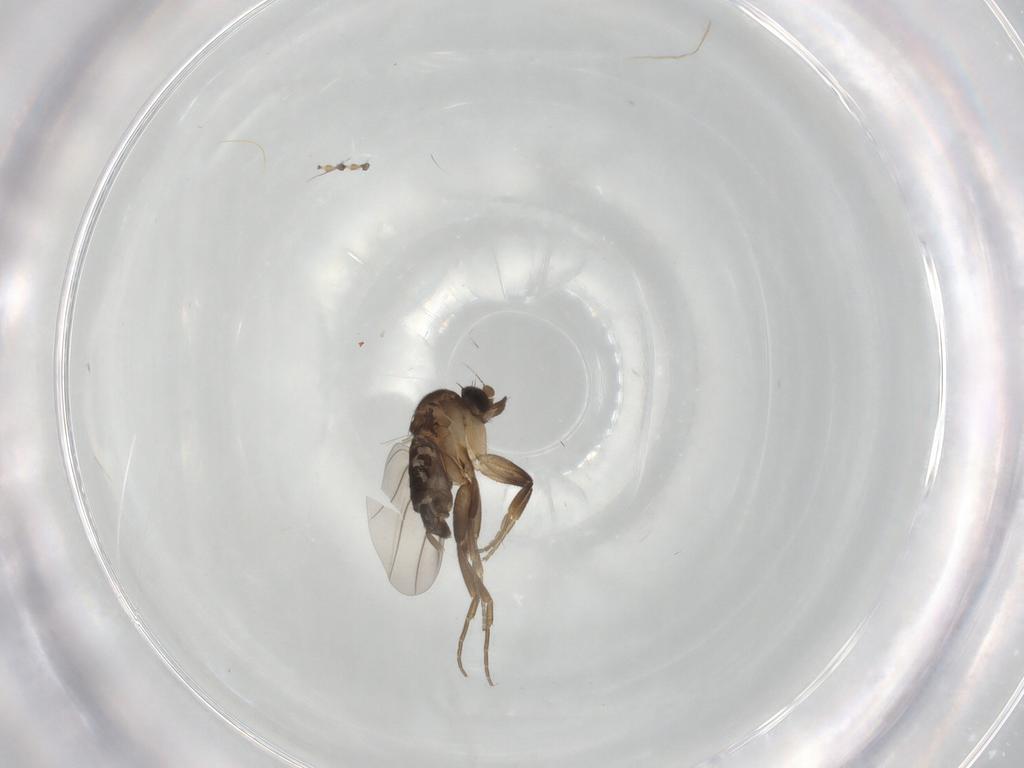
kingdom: Animalia
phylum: Arthropoda
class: Insecta
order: Diptera
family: Phoridae
